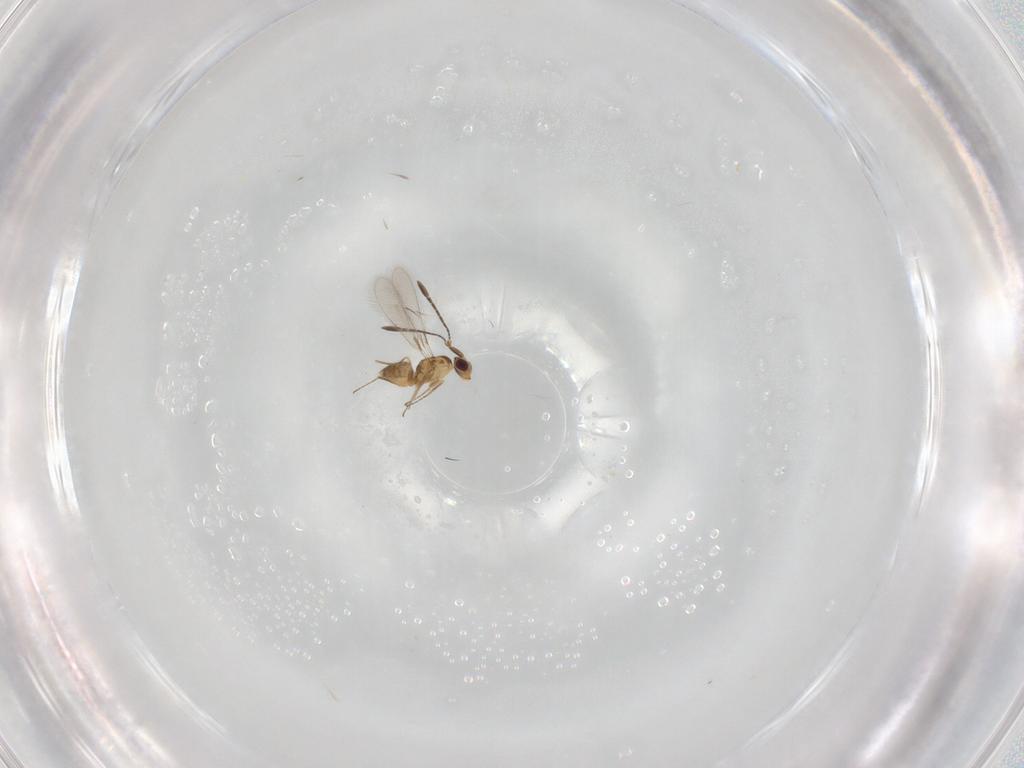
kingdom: Animalia
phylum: Arthropoda
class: Insecta
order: Hymenoptera
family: Mymaridae
